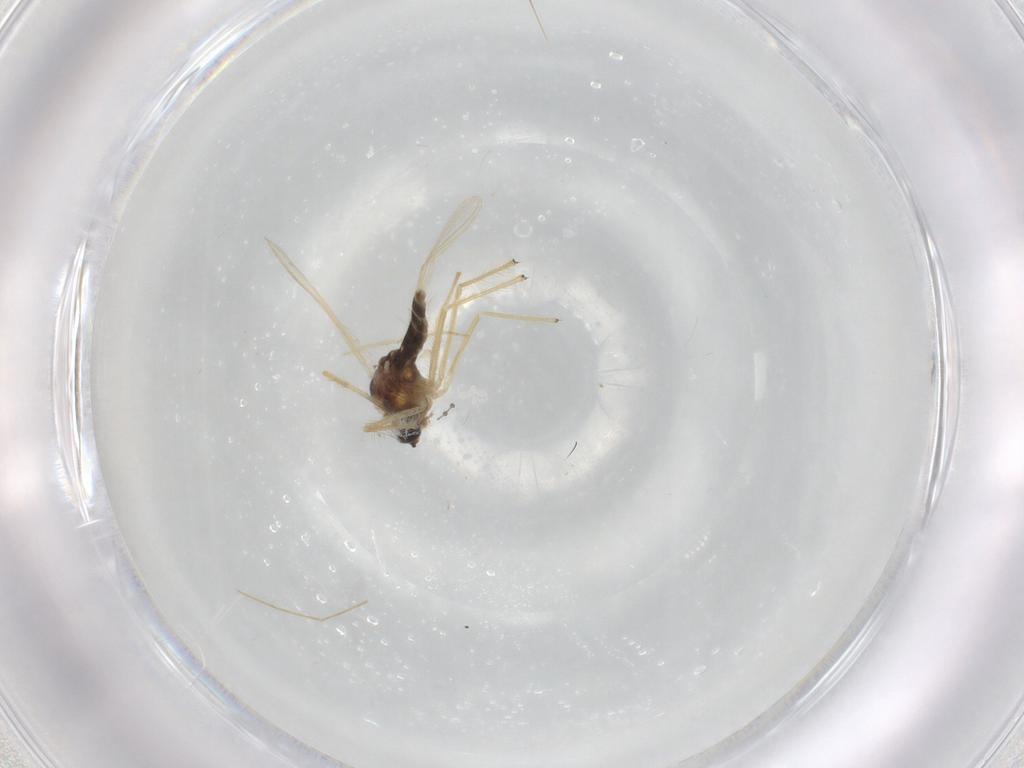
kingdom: Animalia
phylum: Arthropoda
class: Insecta
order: Diptera
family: Chironomidae
